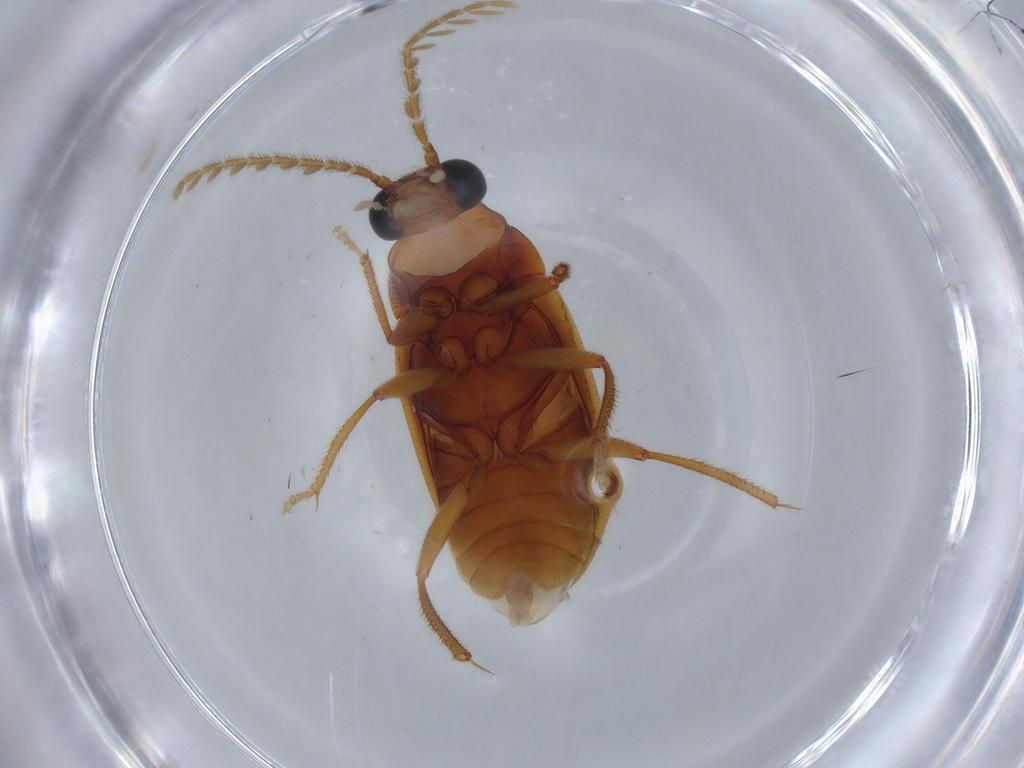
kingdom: Animalia
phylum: Arthropoda
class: Insecta
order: Coleoptera
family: Ptilodactylidae
